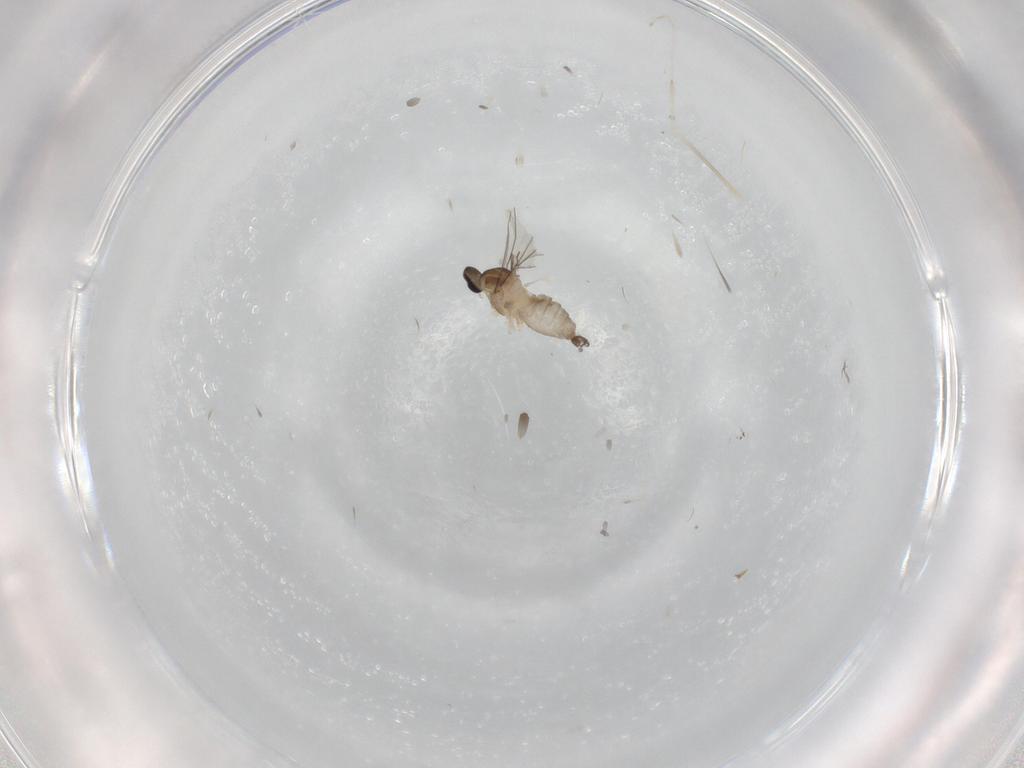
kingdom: Animalia
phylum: Arthropoda
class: Insecta
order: Diptera
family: Cecidomyiidae
